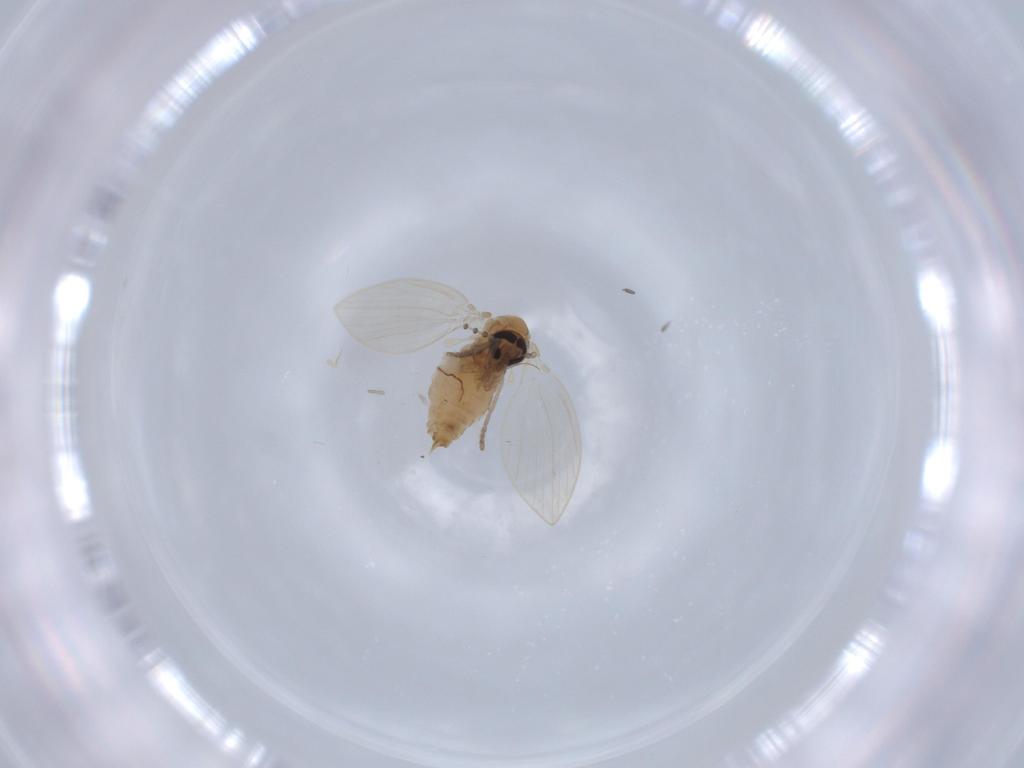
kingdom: Animalia
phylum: Arthropoda
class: Insecta
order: Diptera
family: Psychodidae
